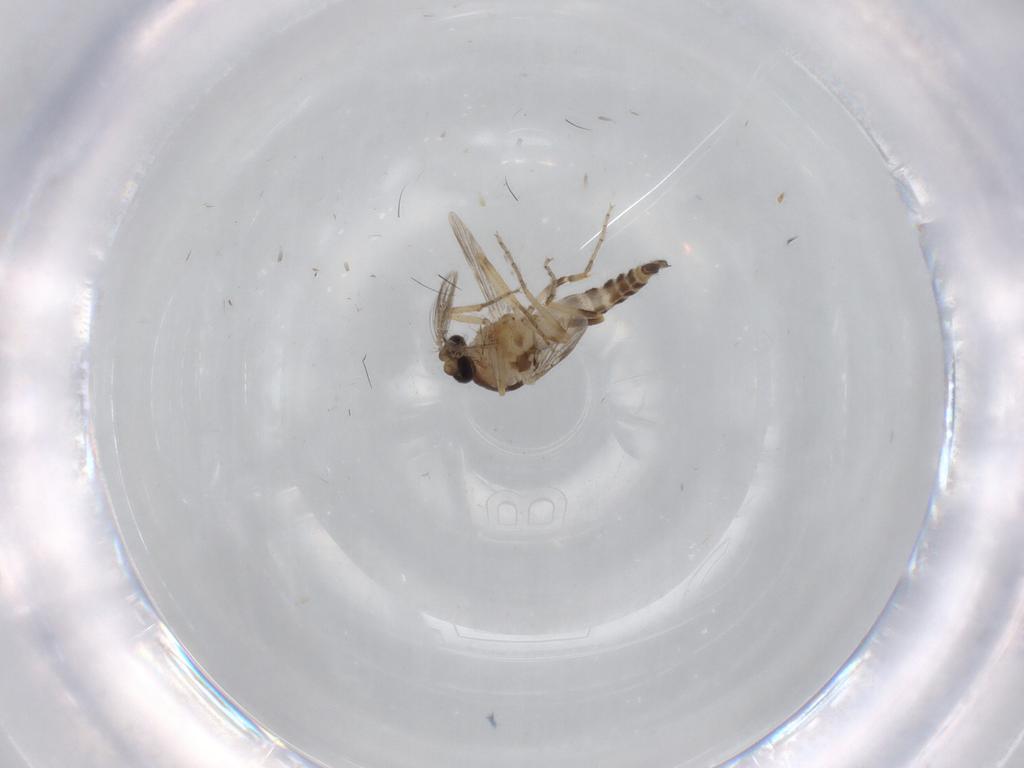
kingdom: Animalia
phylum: Arthropoda
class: Insecta
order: Diptera
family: Ceratopogonidae
